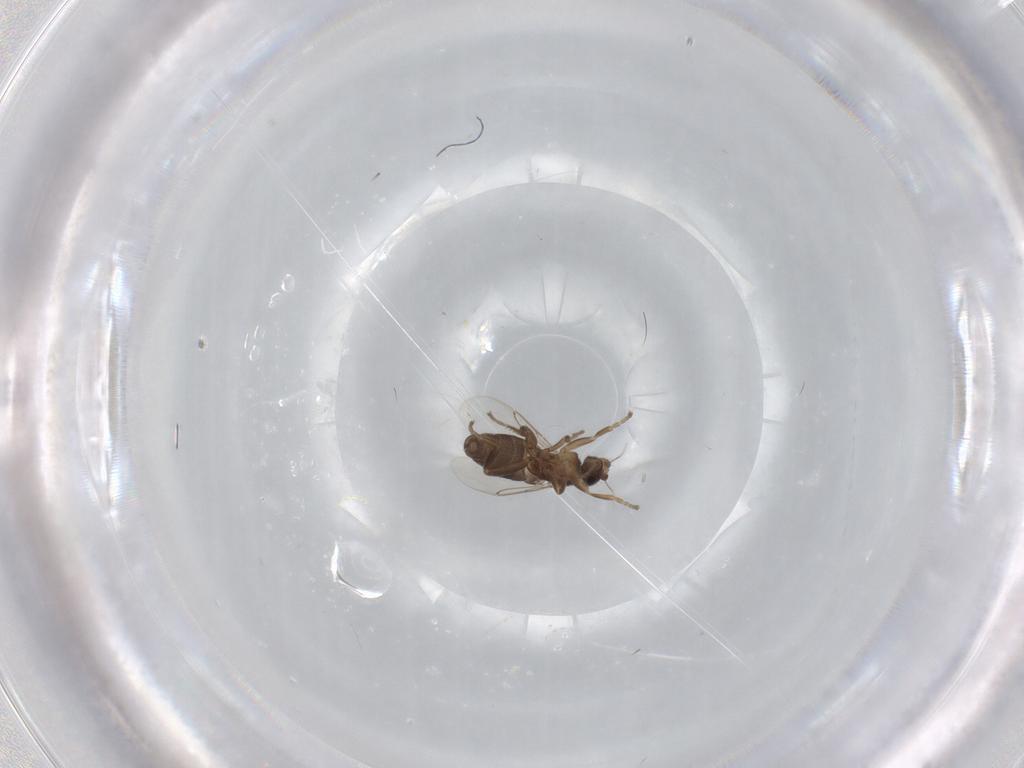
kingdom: Animalia
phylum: Arthropoda
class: Insecta
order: Diptera
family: Phoridae
